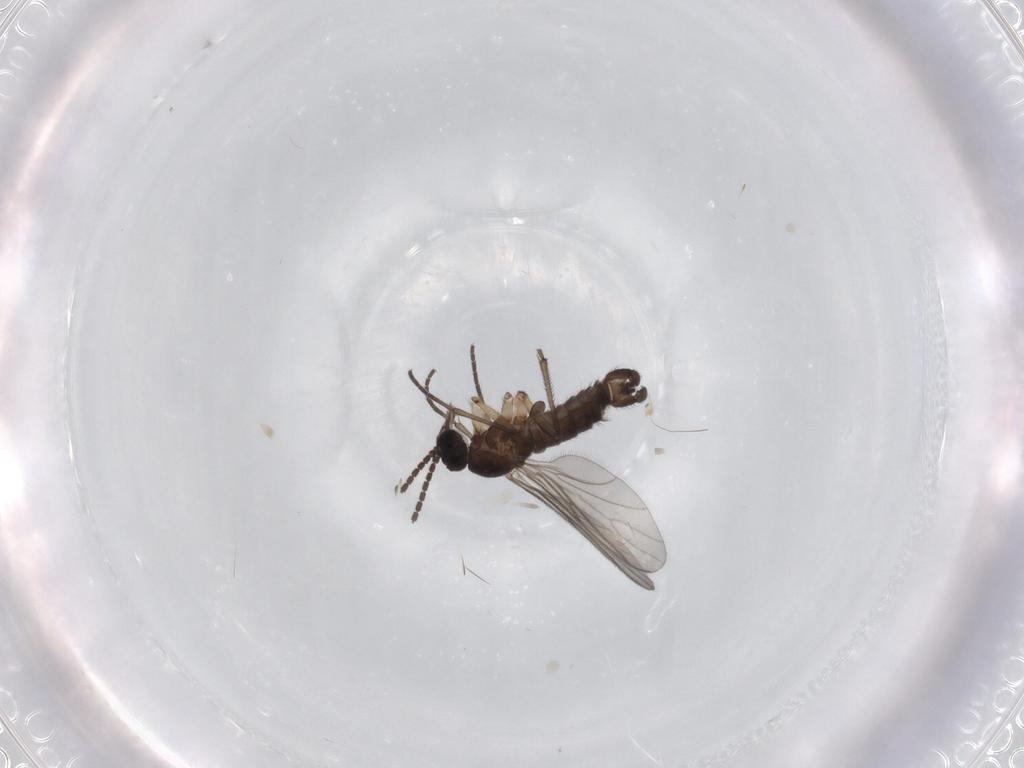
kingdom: Animalia
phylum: Arthropoda
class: Insecta
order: Diptera
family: Sciaridae
